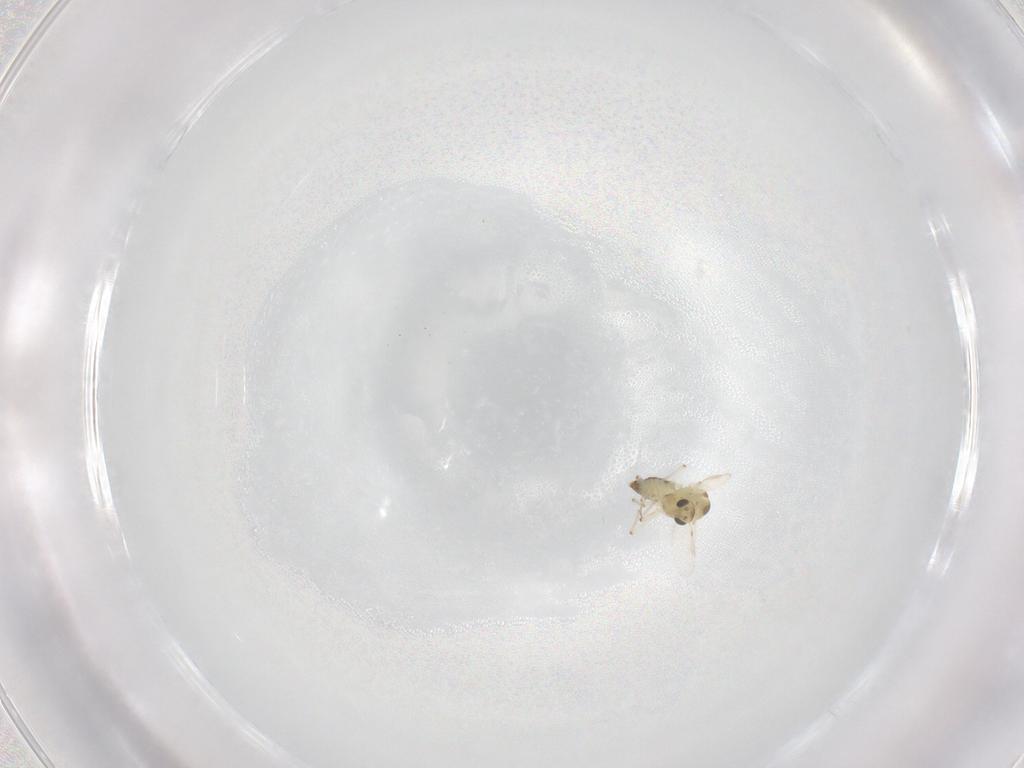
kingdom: Animalia
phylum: Arthropoda
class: Insecta
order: Diptera
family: Chironomidae
